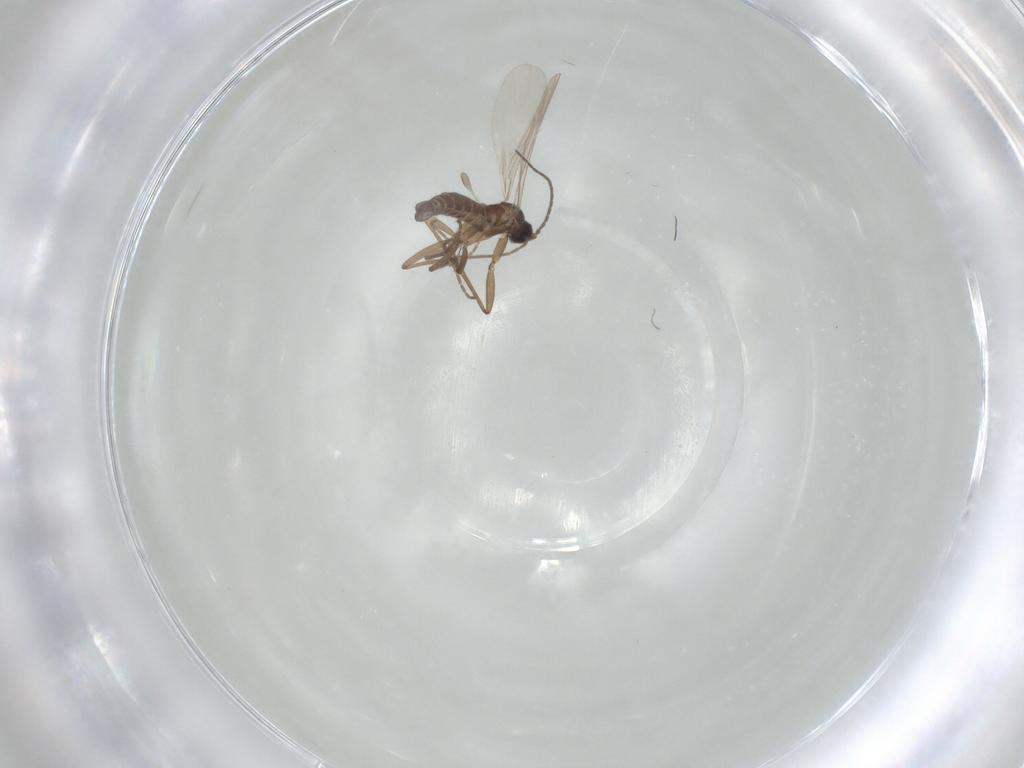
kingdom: Animalia
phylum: Arthropoda
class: Insecta
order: Diptera
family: Sciaridae
